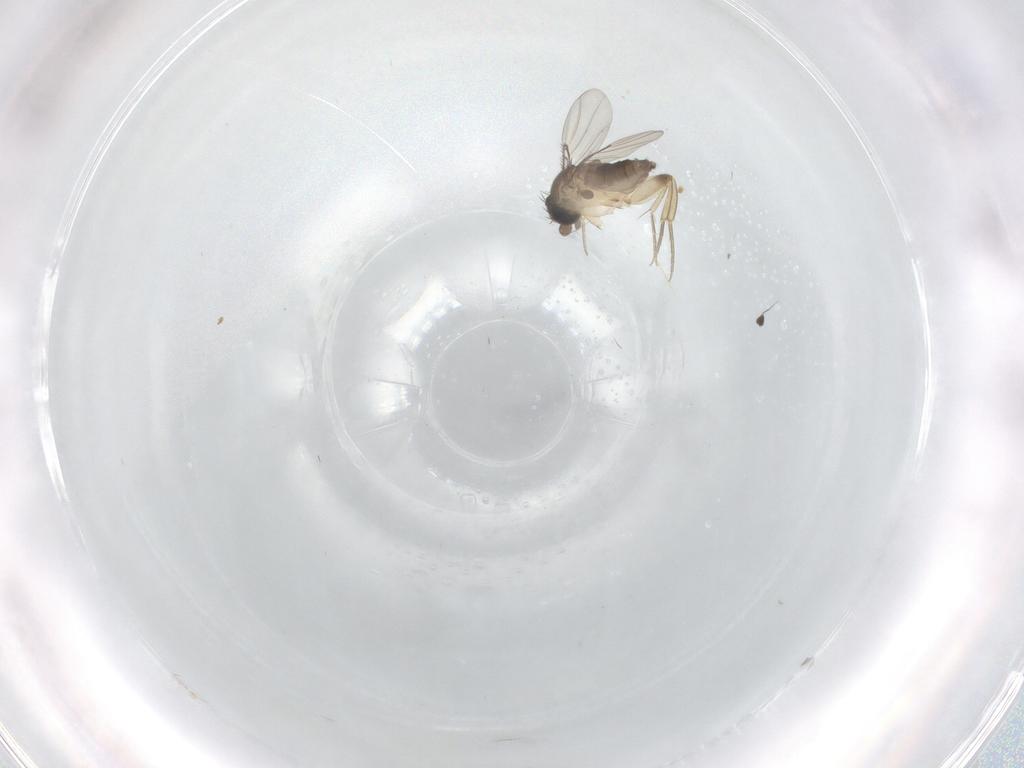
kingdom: Animalia
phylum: Arthropoda
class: Insecta
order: Diptera
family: Phoridae
